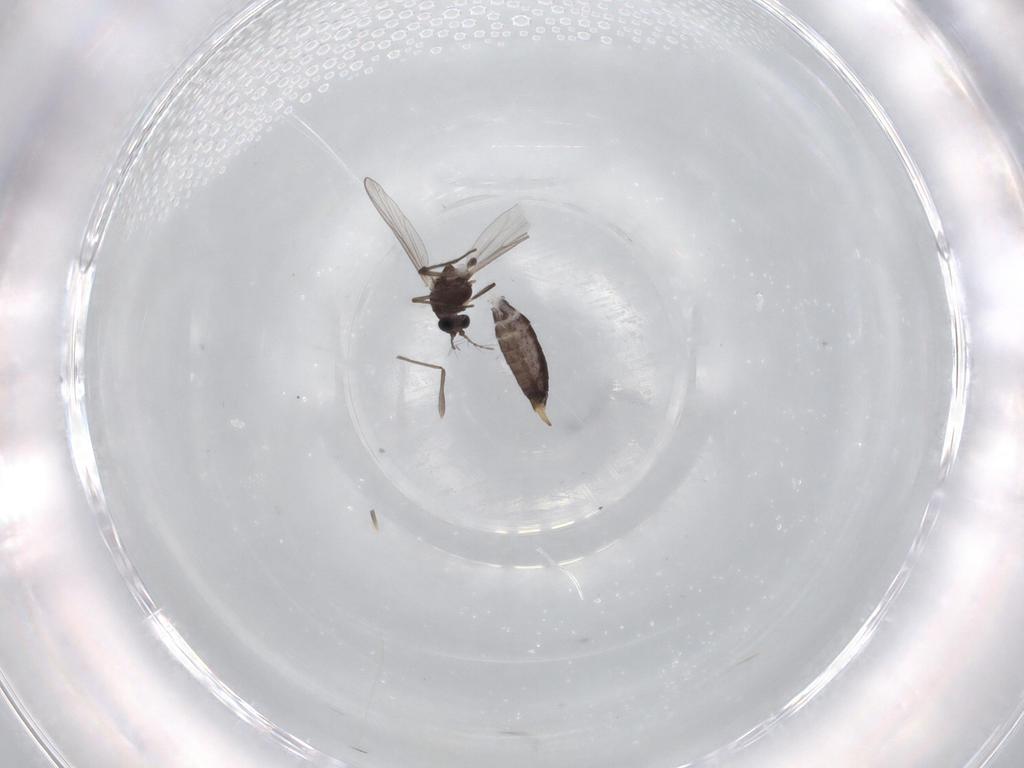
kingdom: Animalia
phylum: Arthropoda
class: Insecta
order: Diptera
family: Chironomidae
